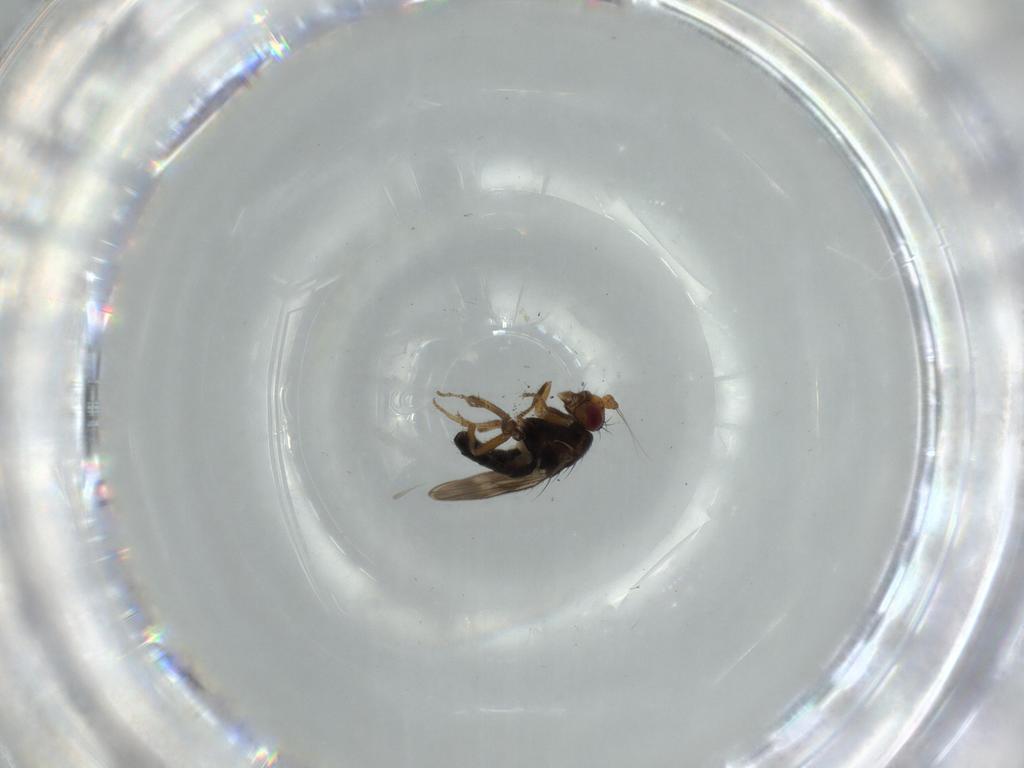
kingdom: Animalia
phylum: Arthropoda
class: Insecta
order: Diptera
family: Sphaeroceridae
